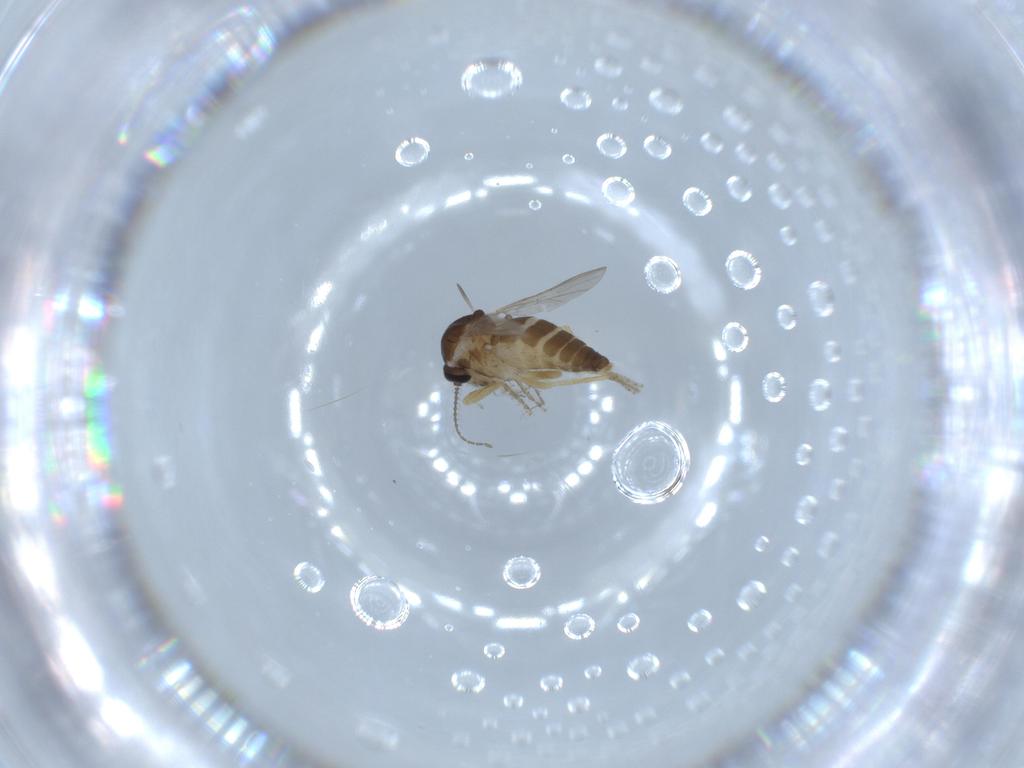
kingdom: Animalia
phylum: Arthropoda
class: Insecta
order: Diptera
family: Ceratopogonidae
